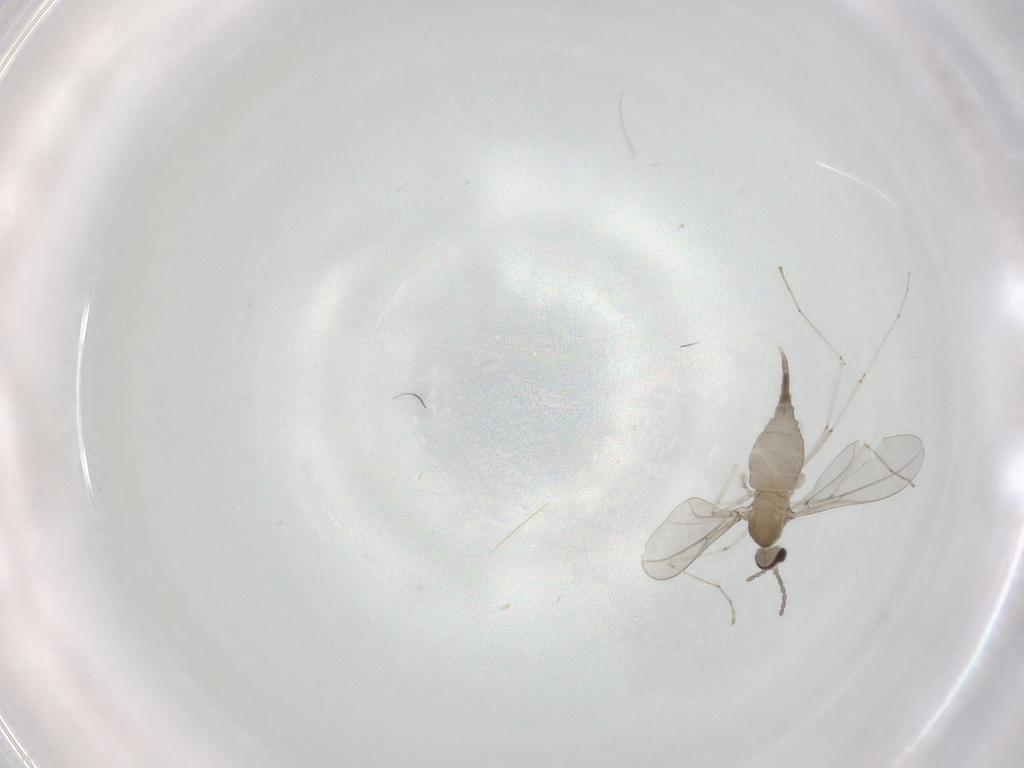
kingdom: Animalia
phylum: Arthropoda
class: Insecta
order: Diptera
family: Cecidomyiidae
